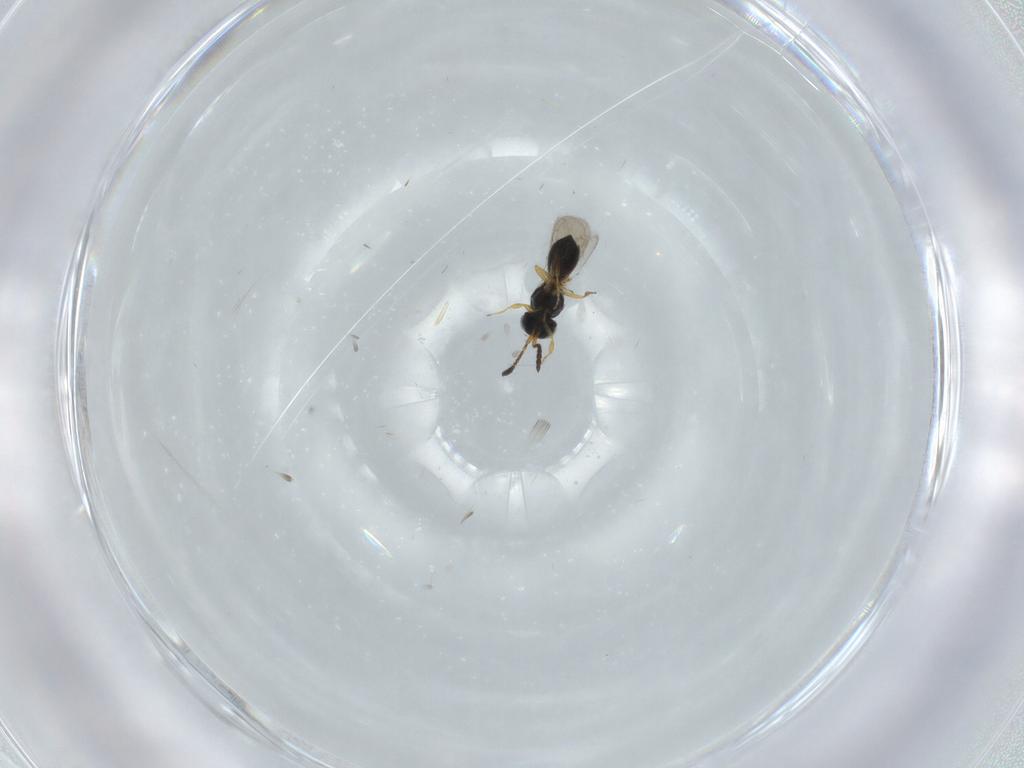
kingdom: Animalia
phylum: Arthropoda
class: Insecta
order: Hymenoptera
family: Scelionidae
